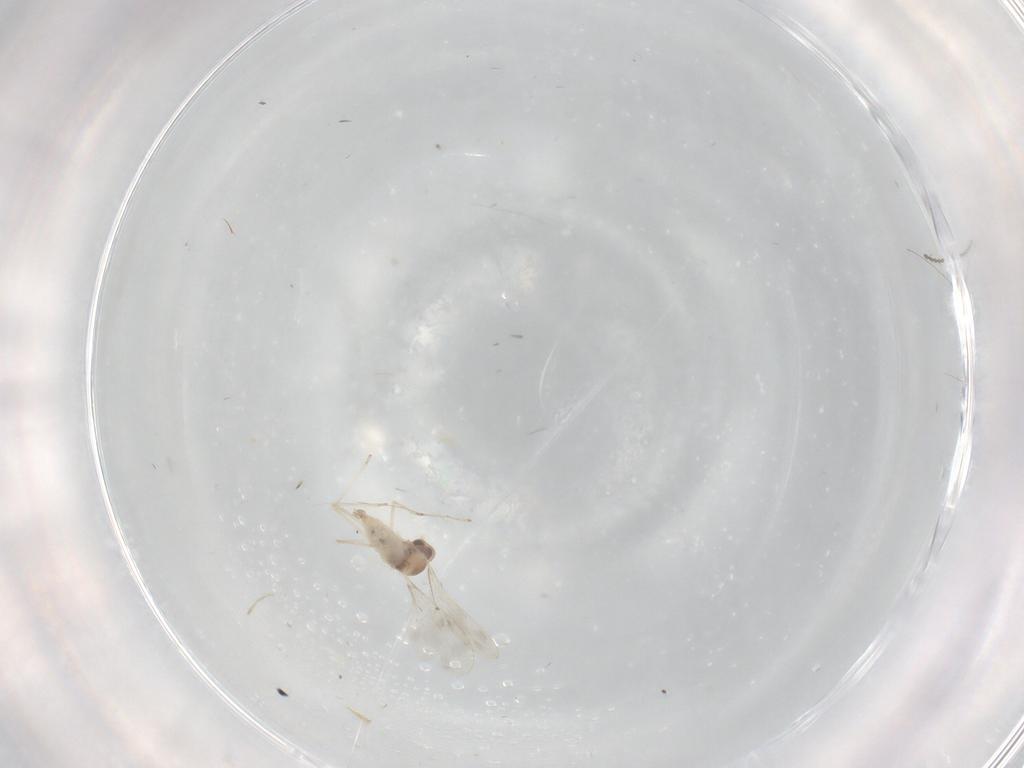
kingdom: Animalia
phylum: Arthropoda
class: Insecta
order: Diptera
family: Cecidomyiidae
